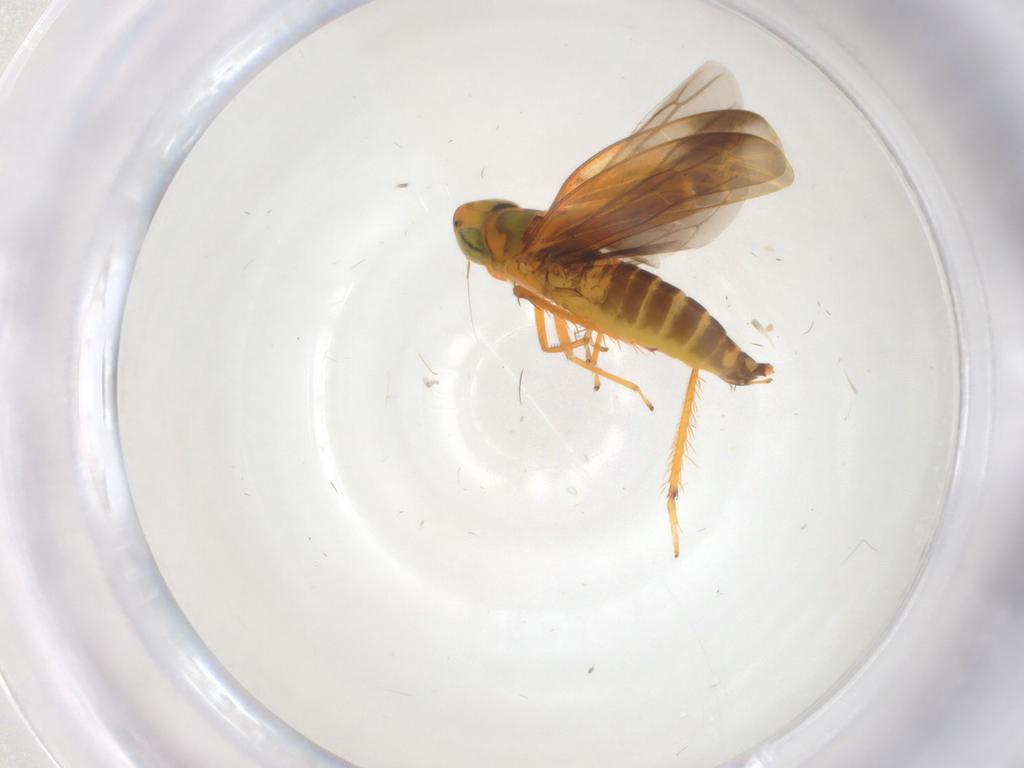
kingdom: Animalia
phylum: Arthropoda
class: Insecta
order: Hemiptera
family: Cicadellidae
